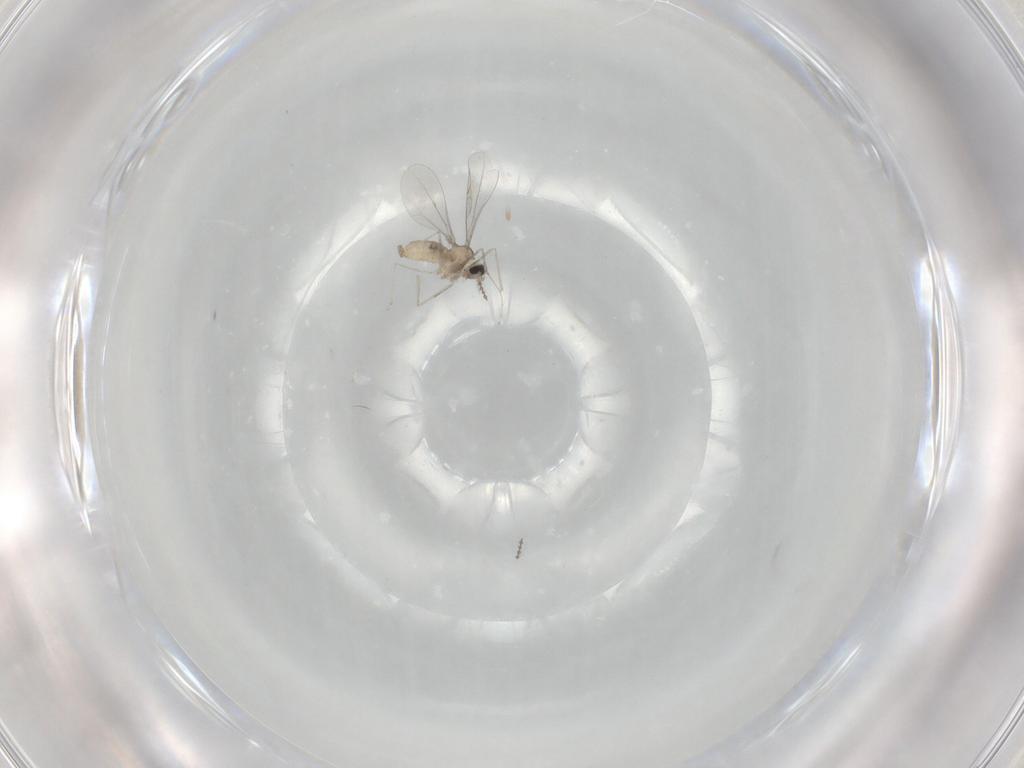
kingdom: Animalia
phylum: Arthropoda
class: Insecta
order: Diptera
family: Cecidomyiidae
